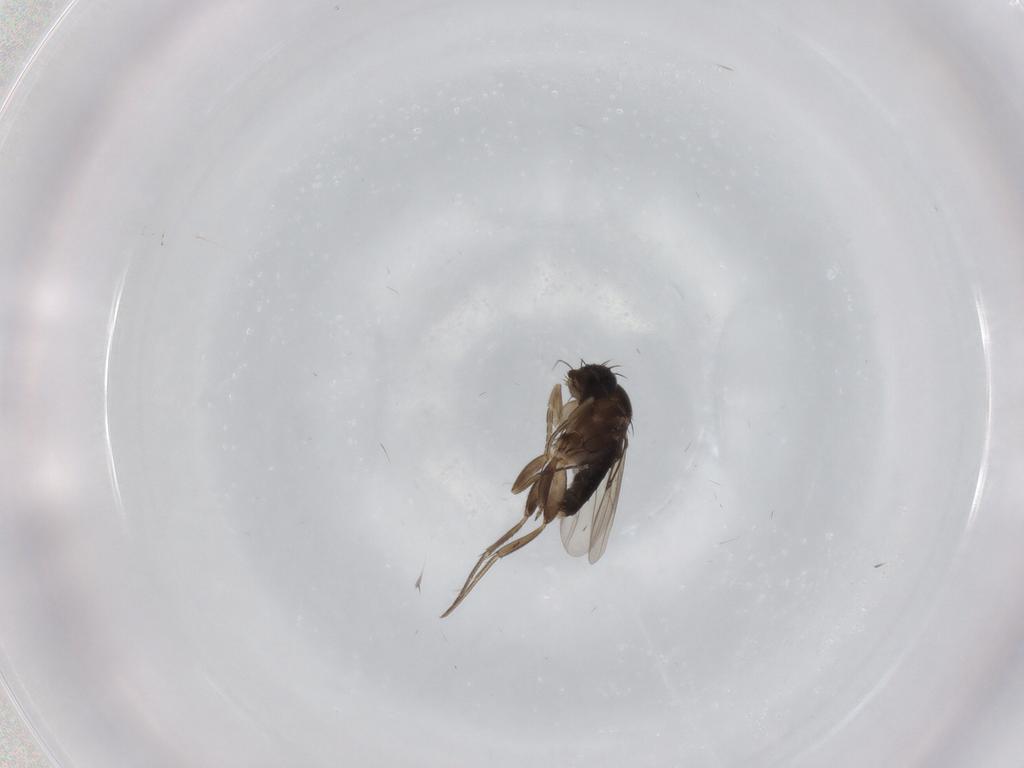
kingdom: Animalia
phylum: Arthropoda
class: Insecta
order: Diptera
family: Phoridae
